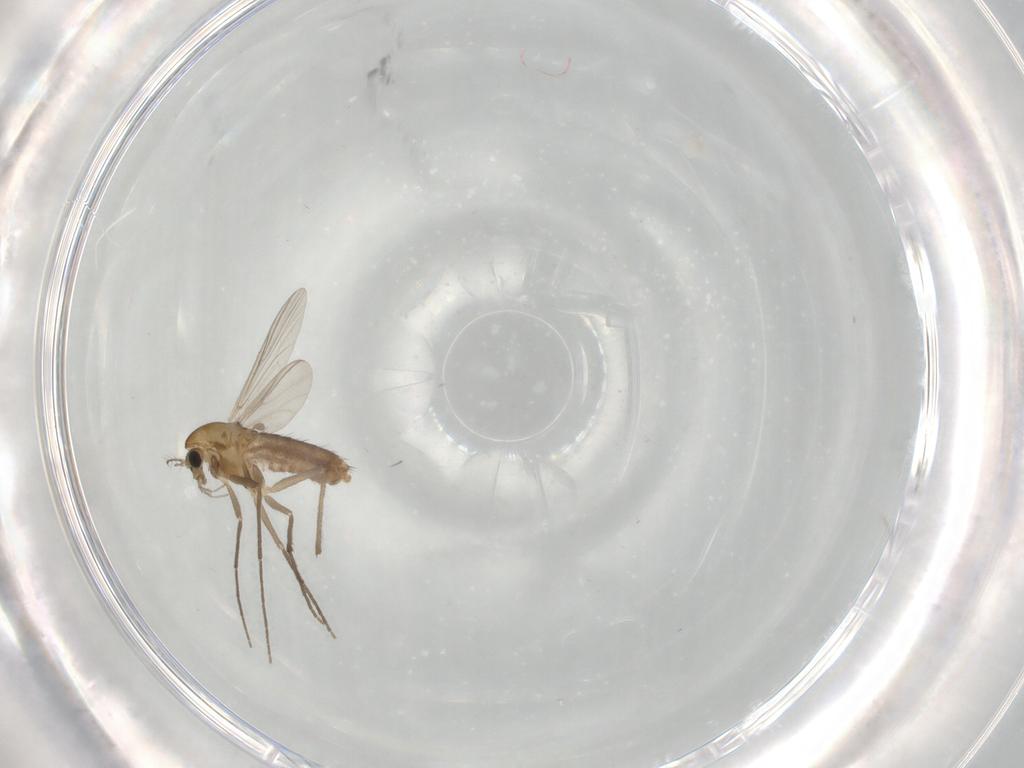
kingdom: Animalia
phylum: Arthropoda
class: Insecta
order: Diptera
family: Chironomidae
